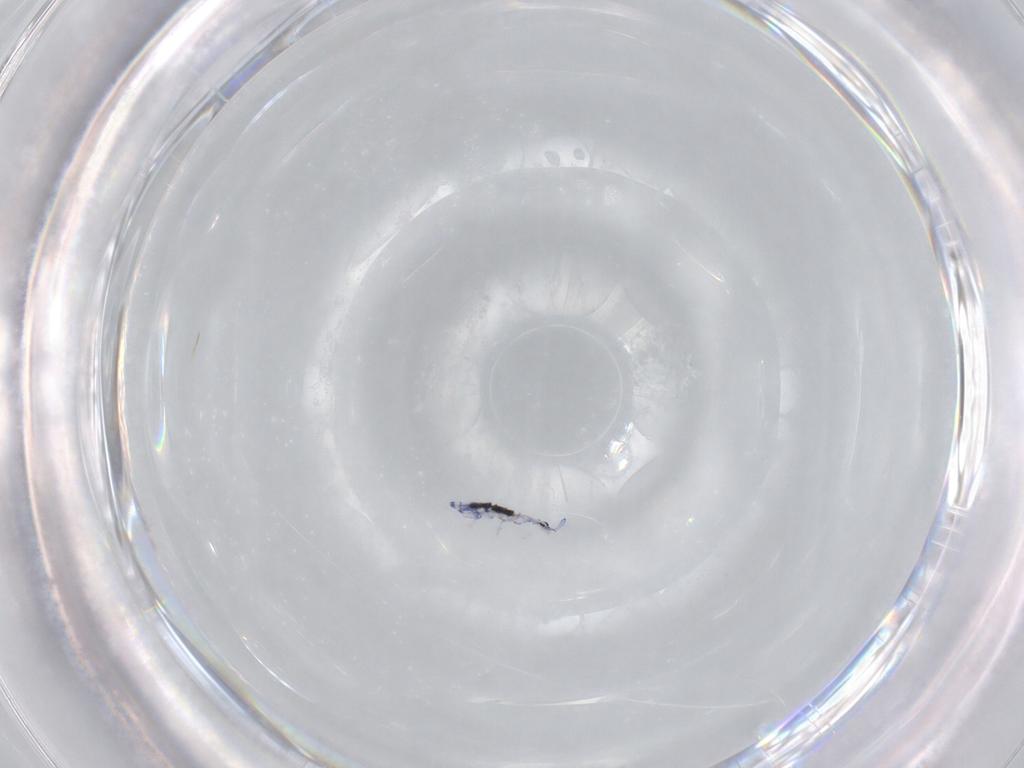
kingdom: Animalia
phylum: Arthropoda
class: Collembola
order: Entomobryomorpha
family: Entomobryidae
